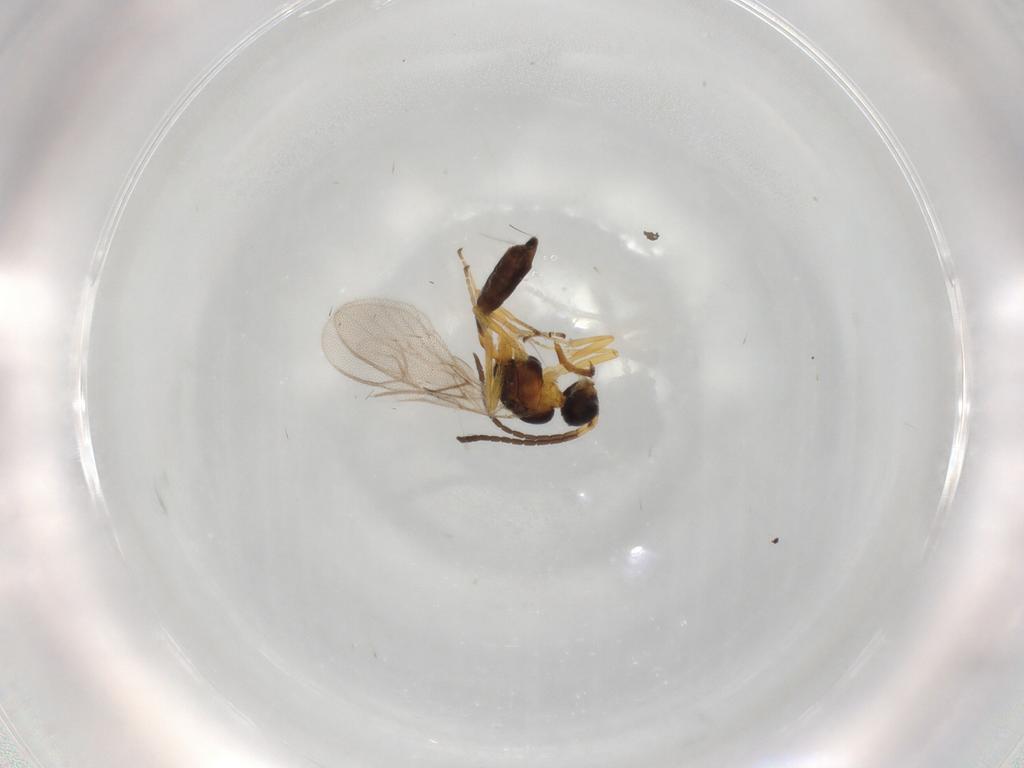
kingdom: Animalia
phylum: Arthropoda
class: Insecta
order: Hymenoptera
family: Braconidae
